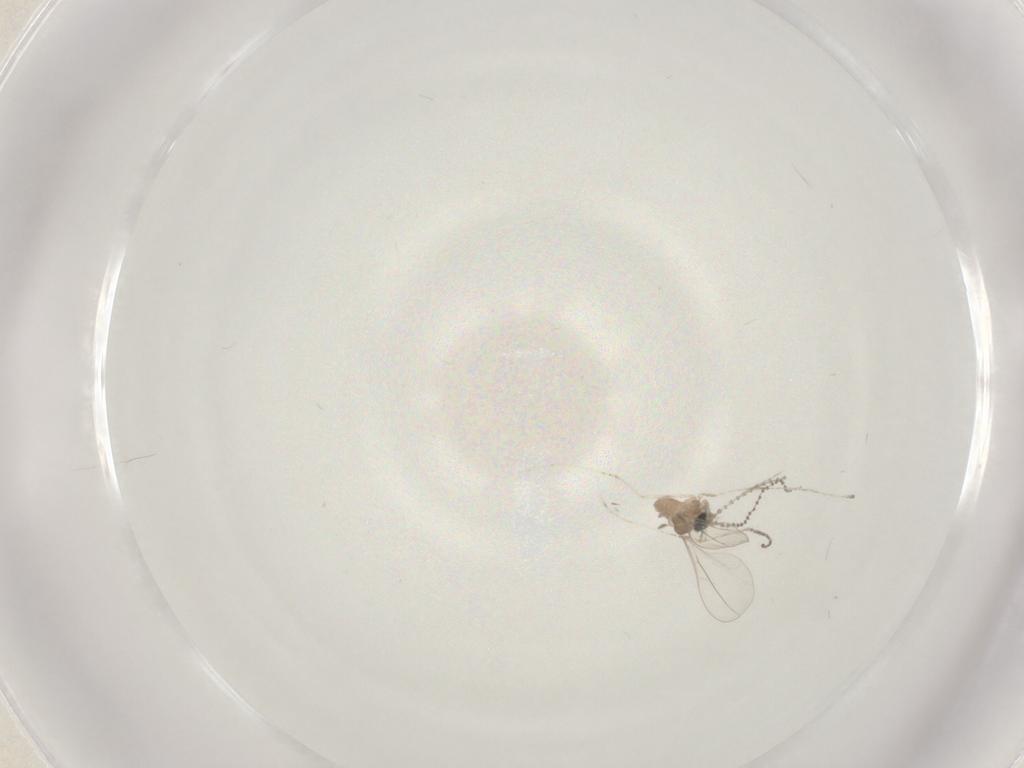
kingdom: Animalia
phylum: Arthropoda
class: Insecta
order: Diptera
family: Cecidomyiidae
